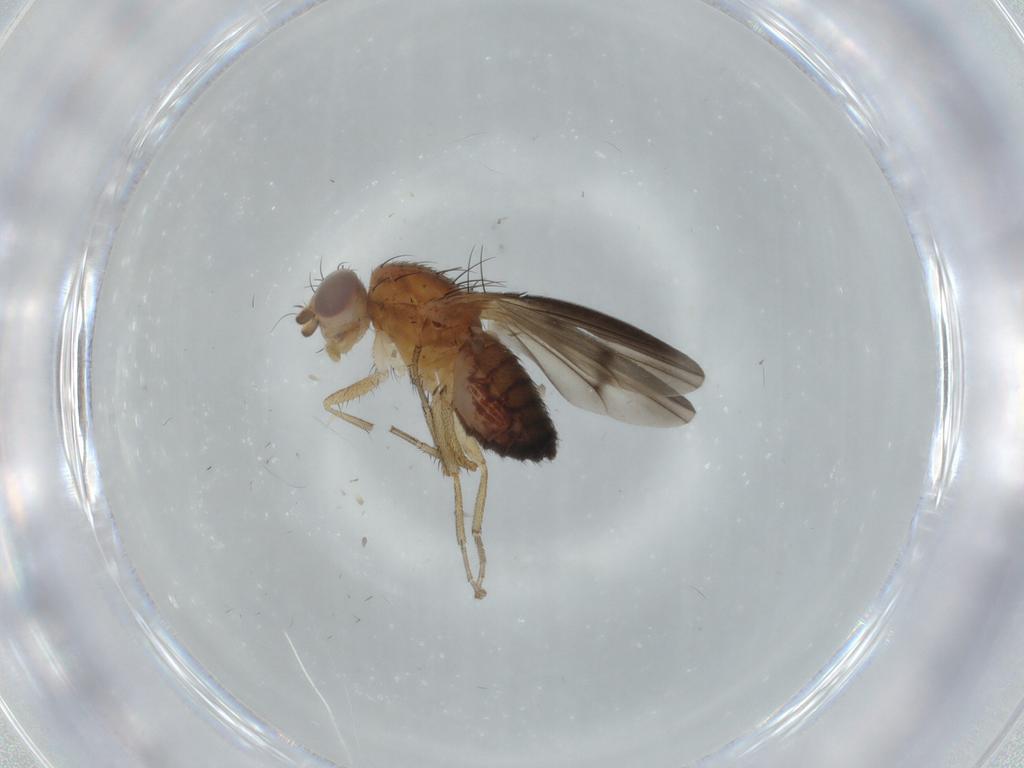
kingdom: Animalia
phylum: Arthropoda
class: Insecta
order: Diptera
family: Heleomyzidae
